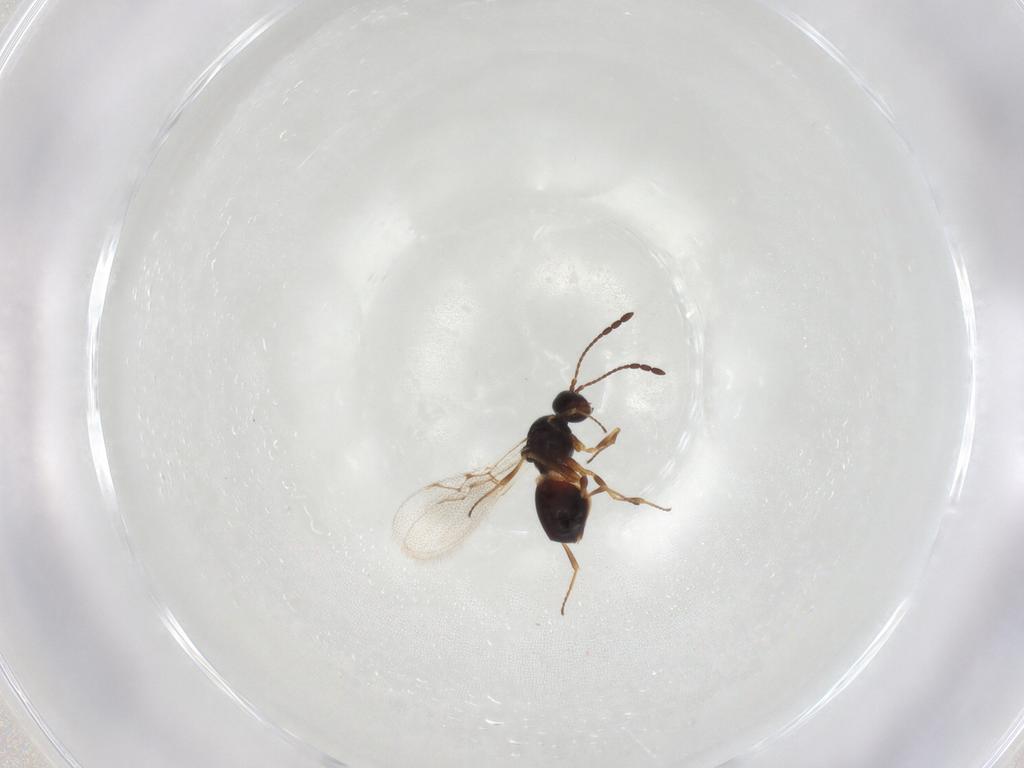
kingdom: Animalia
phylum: Arthropoda
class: Insecta
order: Hymenoptera
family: Figitidae
